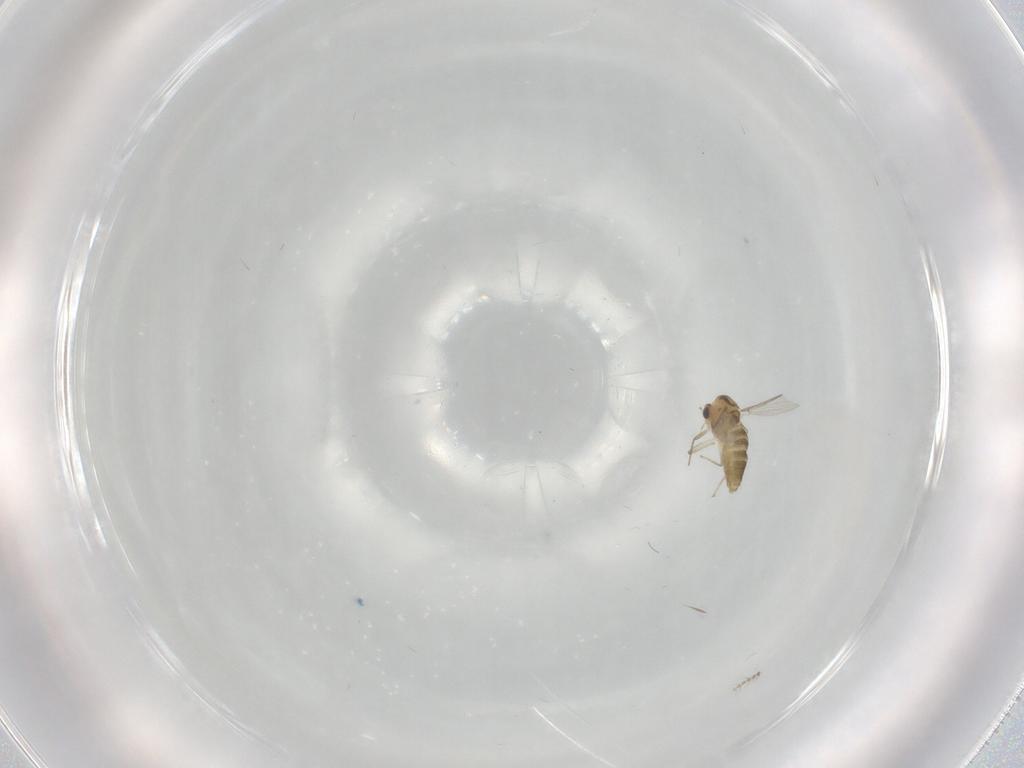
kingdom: Animalia
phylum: Arthropoda
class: Insecta
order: Diptera
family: Ceratopogonidae
